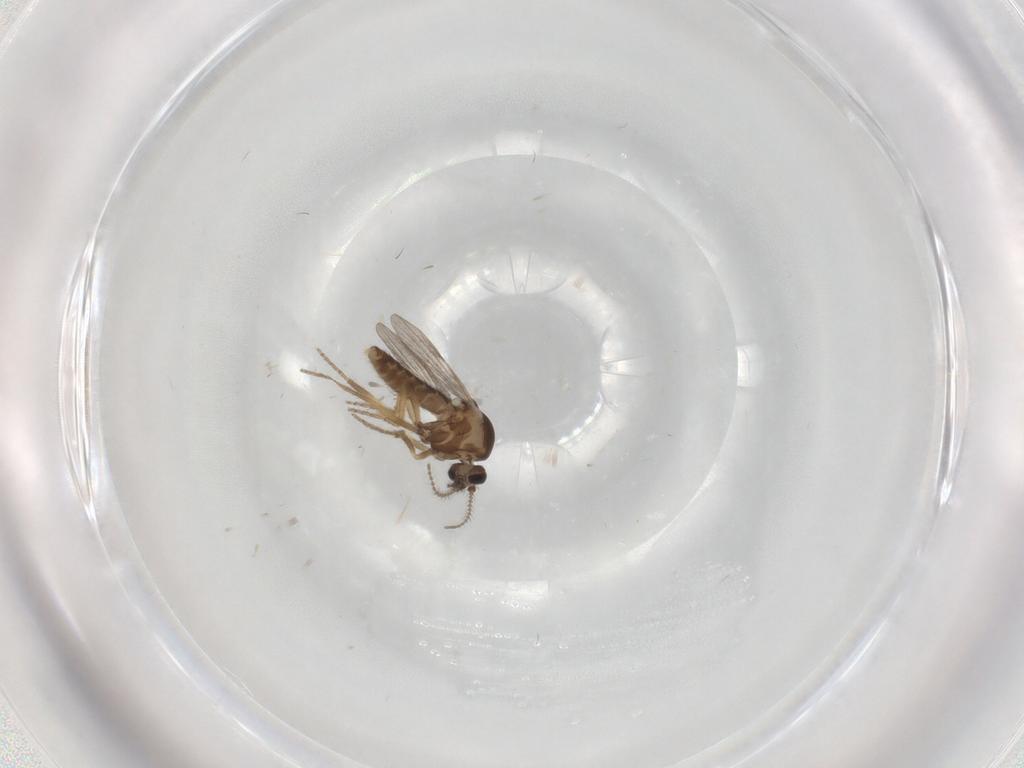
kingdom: Animalia
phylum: Arthropoda
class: Insecta
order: Diptera
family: Ceratopogonidae
